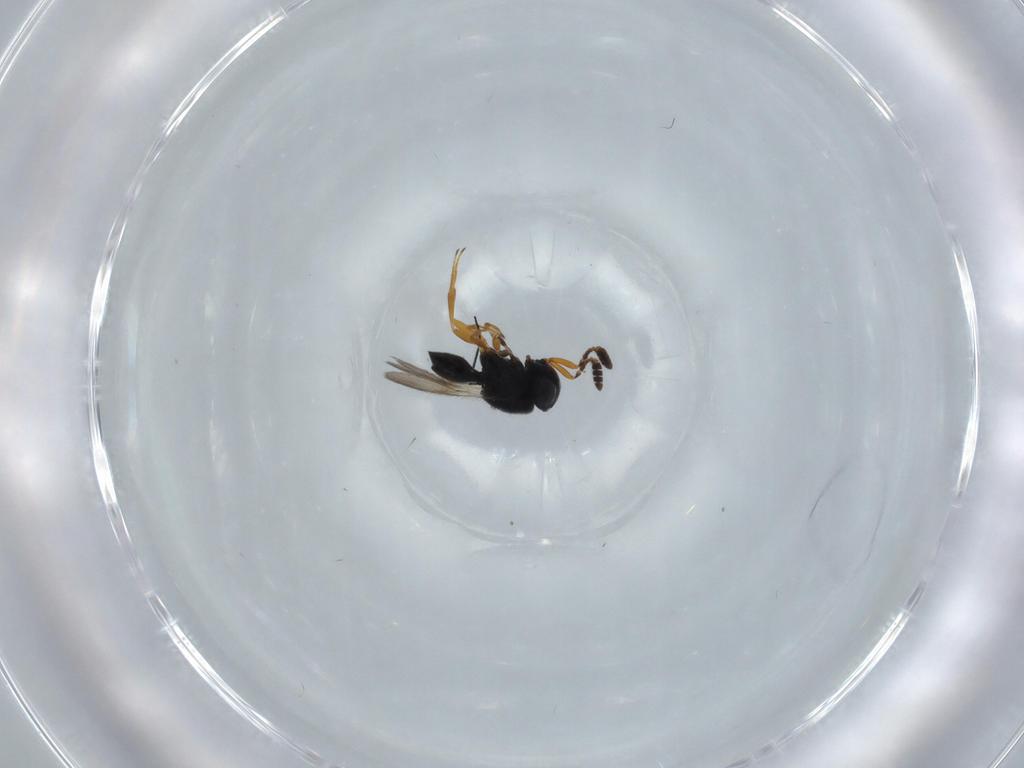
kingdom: Animalia
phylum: Arthropoda
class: Insecta
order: Hymenoptera
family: Scelionidae
